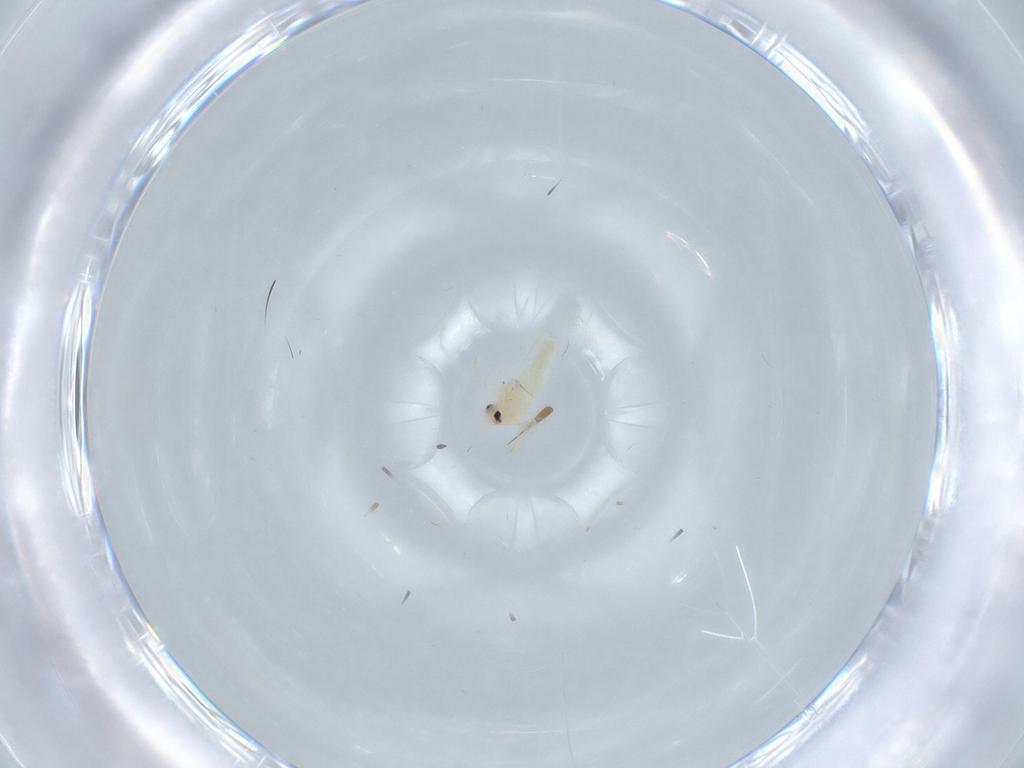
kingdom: Animalia
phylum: Arthropoda
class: Insecta
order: Hemiptera
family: Aleyrodidae
